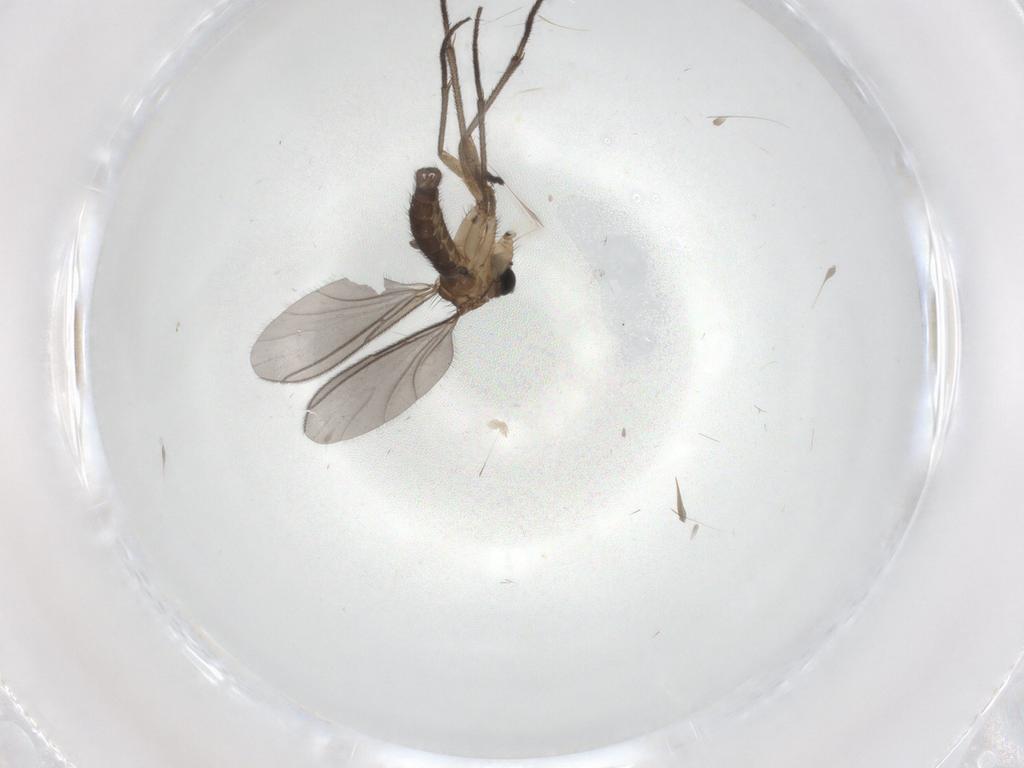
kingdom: Animalia
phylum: Arthropoda
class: Insecta
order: Diptera
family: Sciaridae
